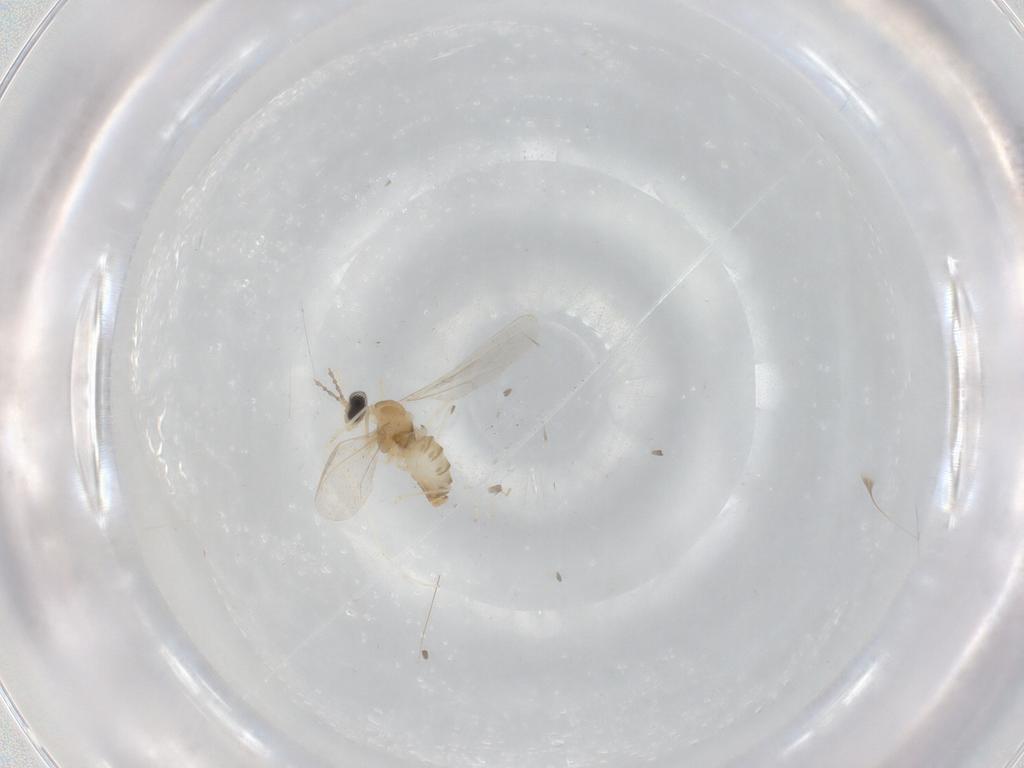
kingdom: Animalia
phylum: Arthropoda
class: Insecta
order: Diptera
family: Cecidomyiidae
